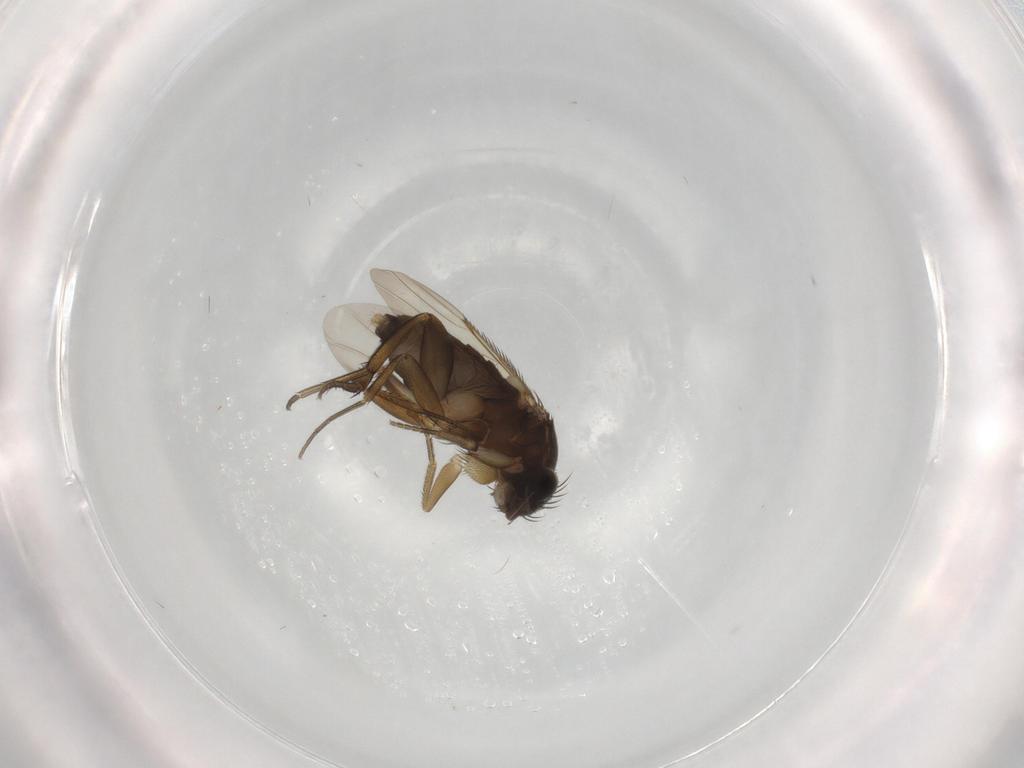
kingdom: Animalia
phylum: Arthropoda
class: Insecta
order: Diptera
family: Phoridae
